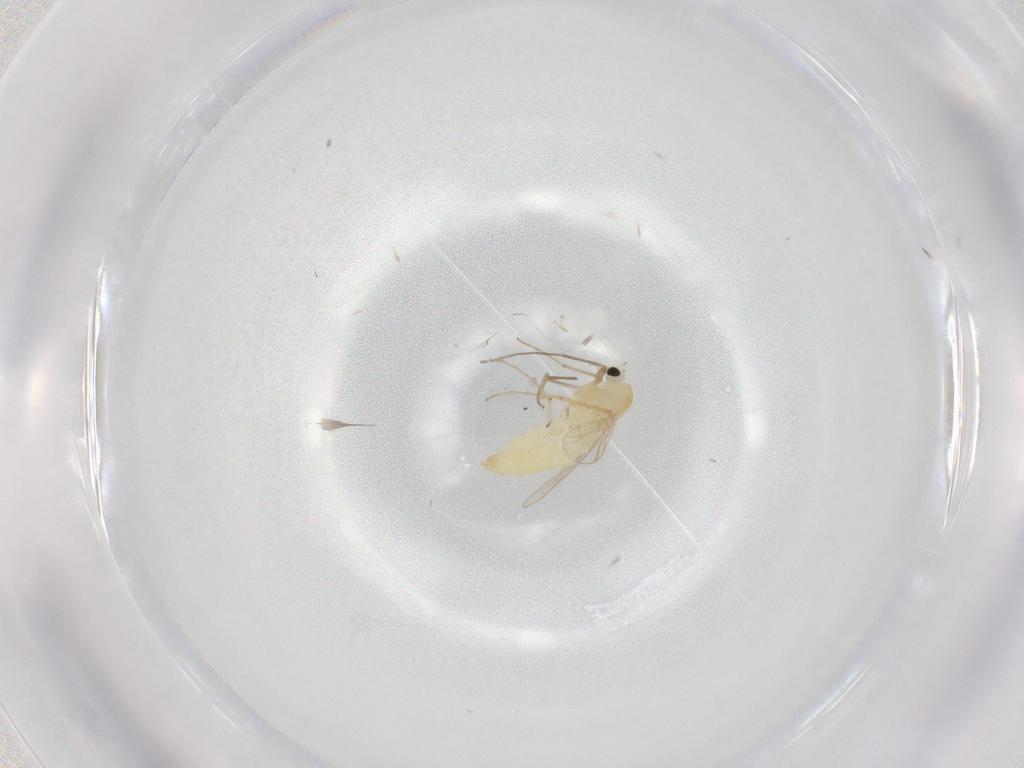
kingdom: Animalia
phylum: Arthropoda
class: Insecta
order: Diptera
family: Chironomidae
